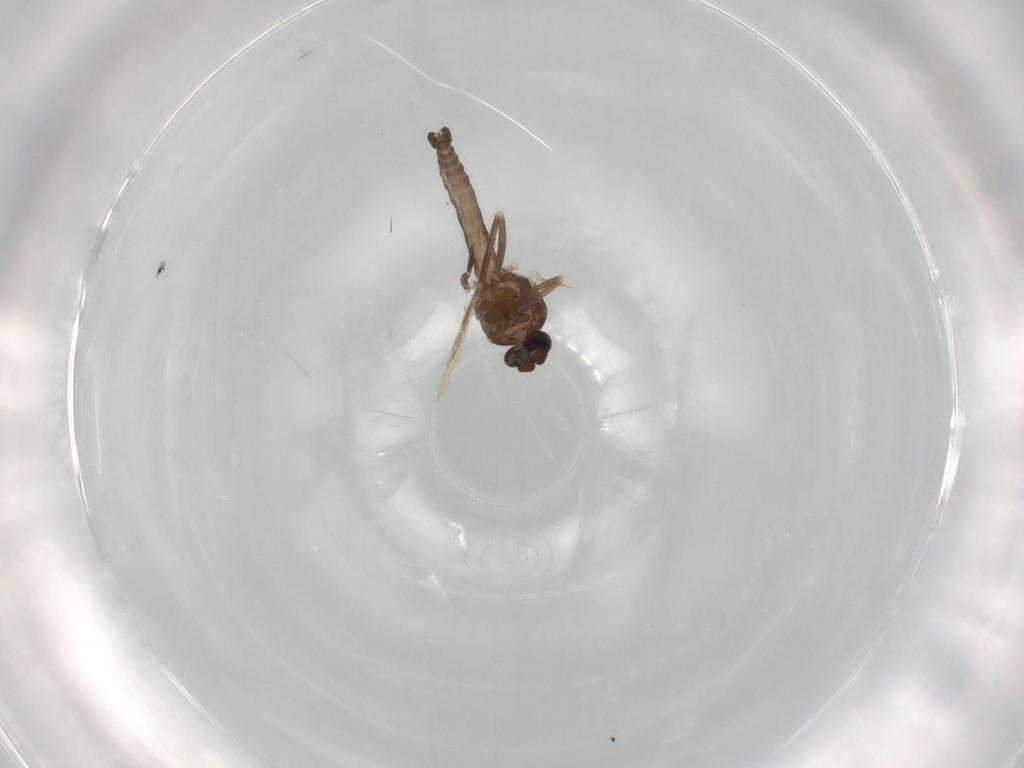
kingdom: Animalia
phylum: Arthropoda
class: Insecta
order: Diptera
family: Ceratopogonidae
